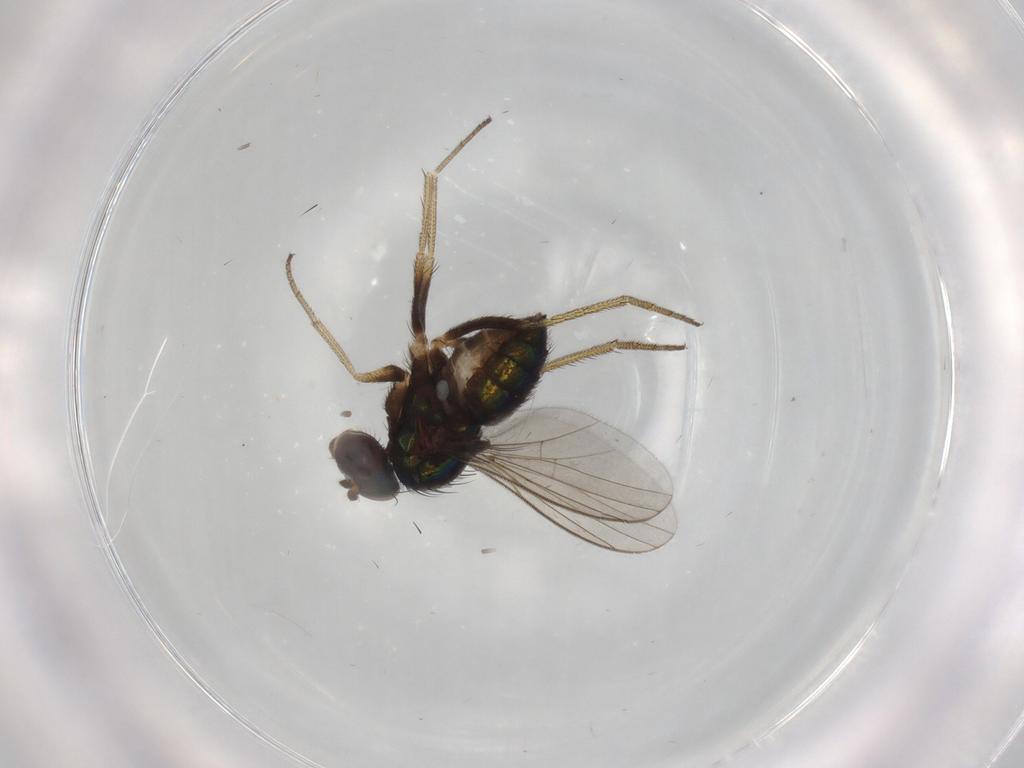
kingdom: Animalia
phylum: Arthropoda
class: Insecta
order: Diptera
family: Chironomidae
